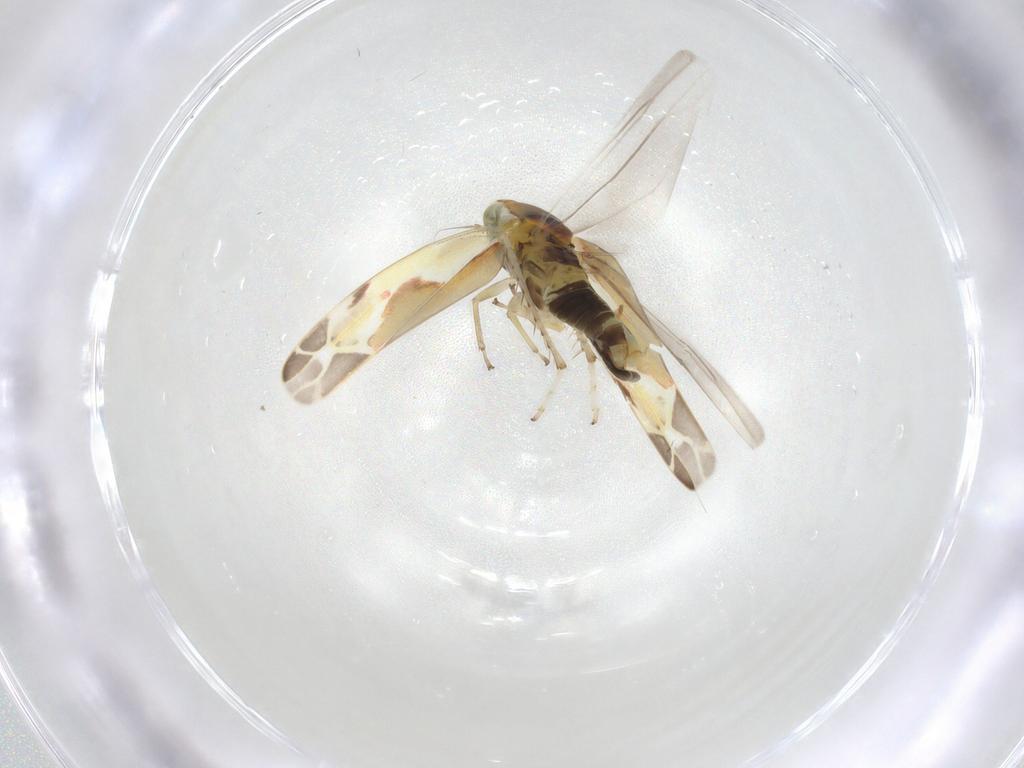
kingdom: Animalia
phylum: Arthropoda
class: Insecta
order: Hemiptera
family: Cicadellidae
